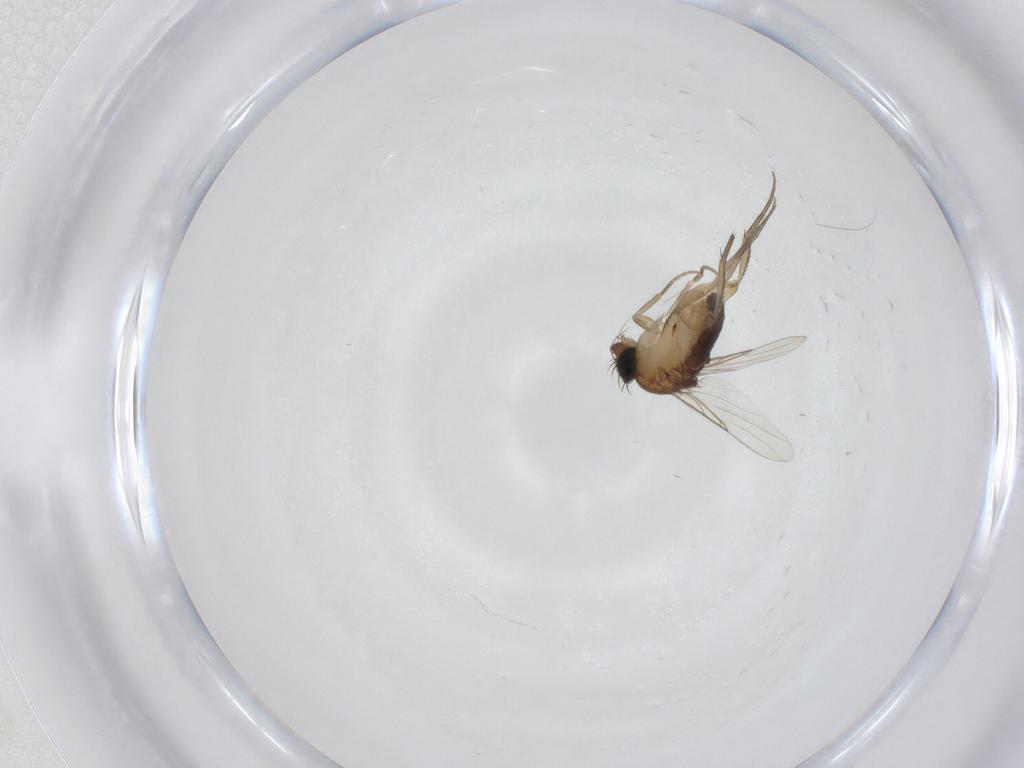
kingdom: Animalia
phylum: Arthropoda
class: Insecta
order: Diptera
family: Phoridae
